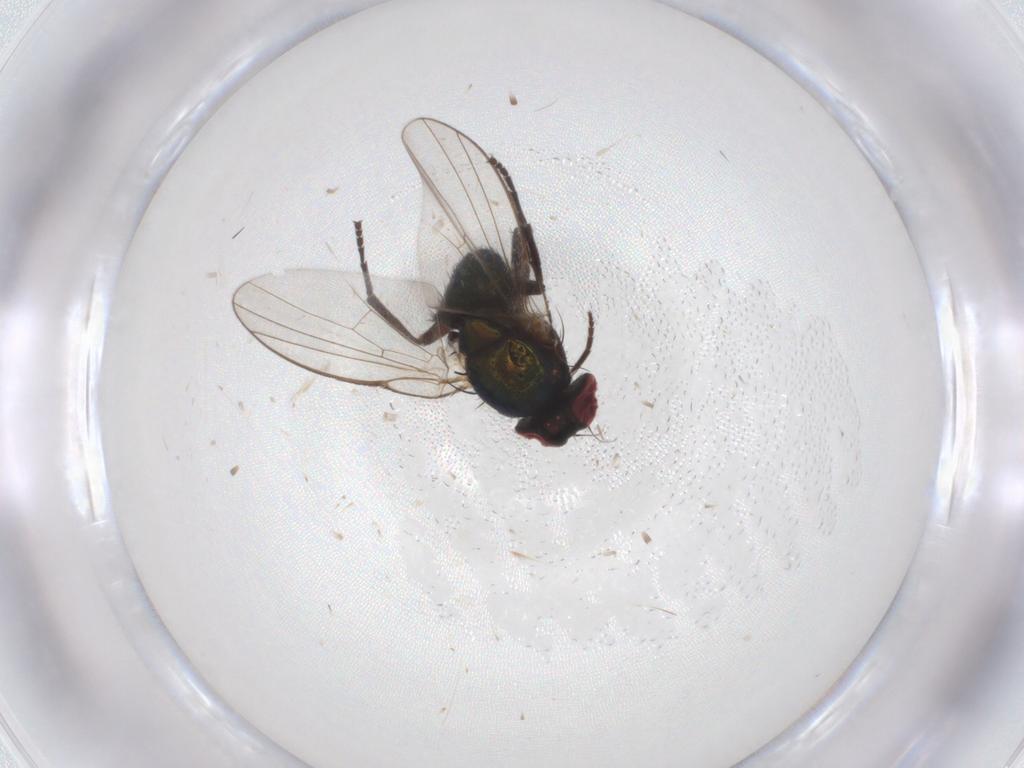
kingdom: Animalia
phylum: Arthropoda
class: Insecta
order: Diptera
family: Agromyzidae
